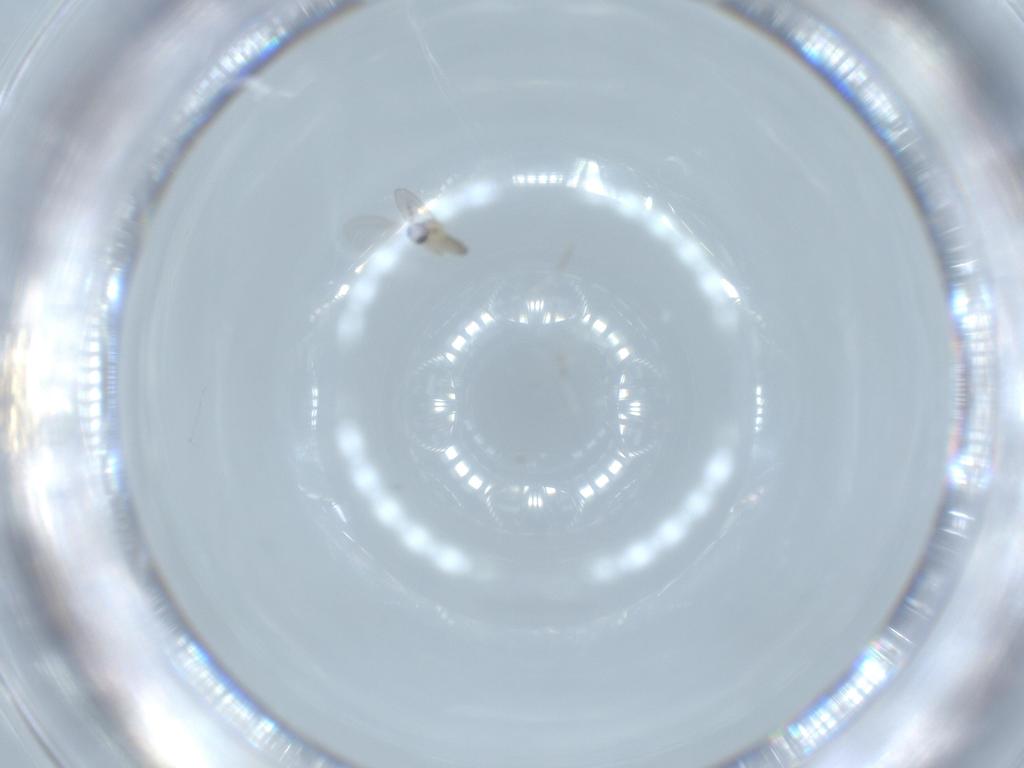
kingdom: Animalia
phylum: Arthropoda
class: Insecta
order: Diptera
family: Cecidomyiidae
